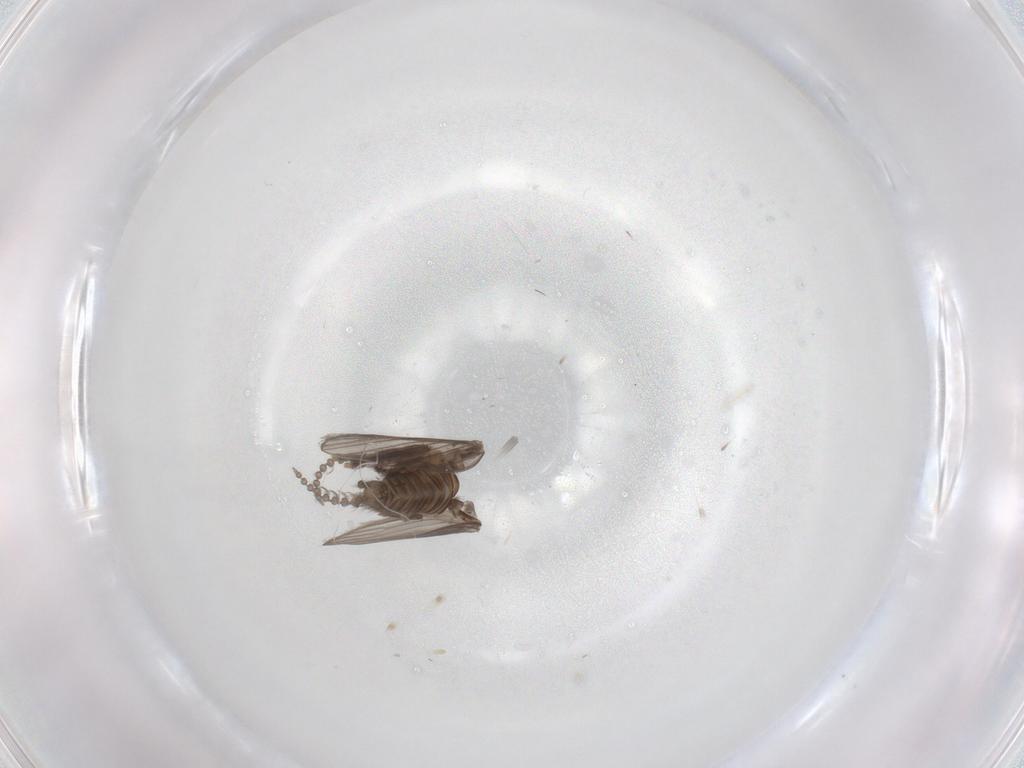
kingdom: Animalia
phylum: Arthropoda
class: Insecta
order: Diptera
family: Psychodidae
